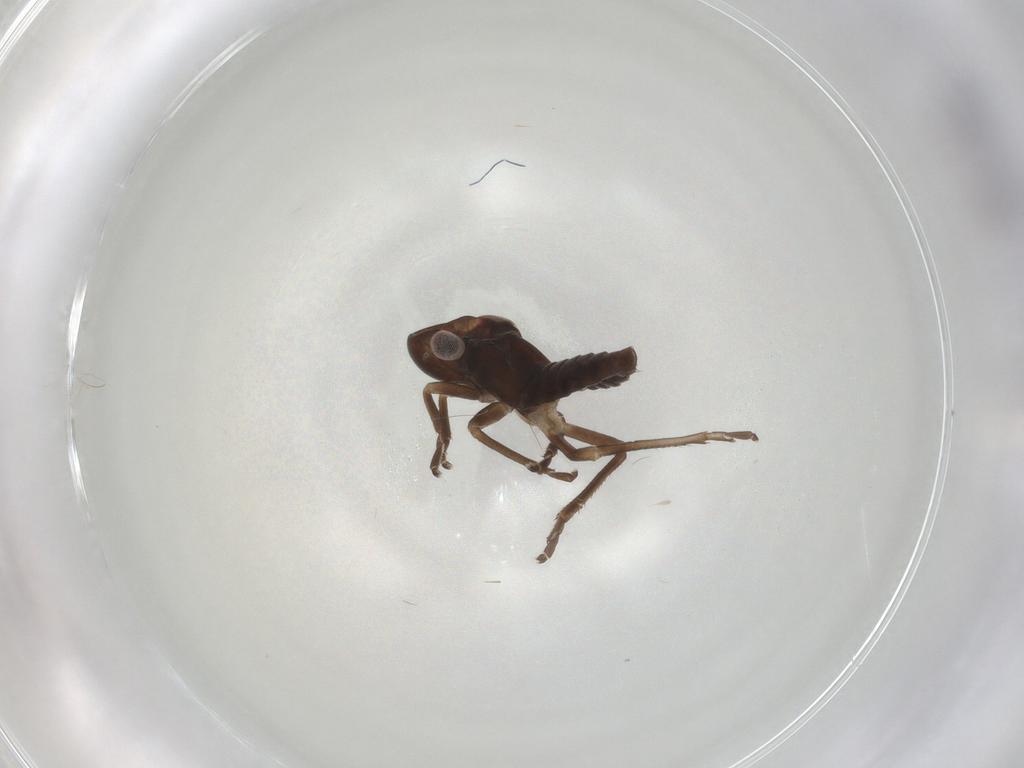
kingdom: Animalia
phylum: Arthropoda
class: Insecta
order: Hemiptera
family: Cicadellidae
